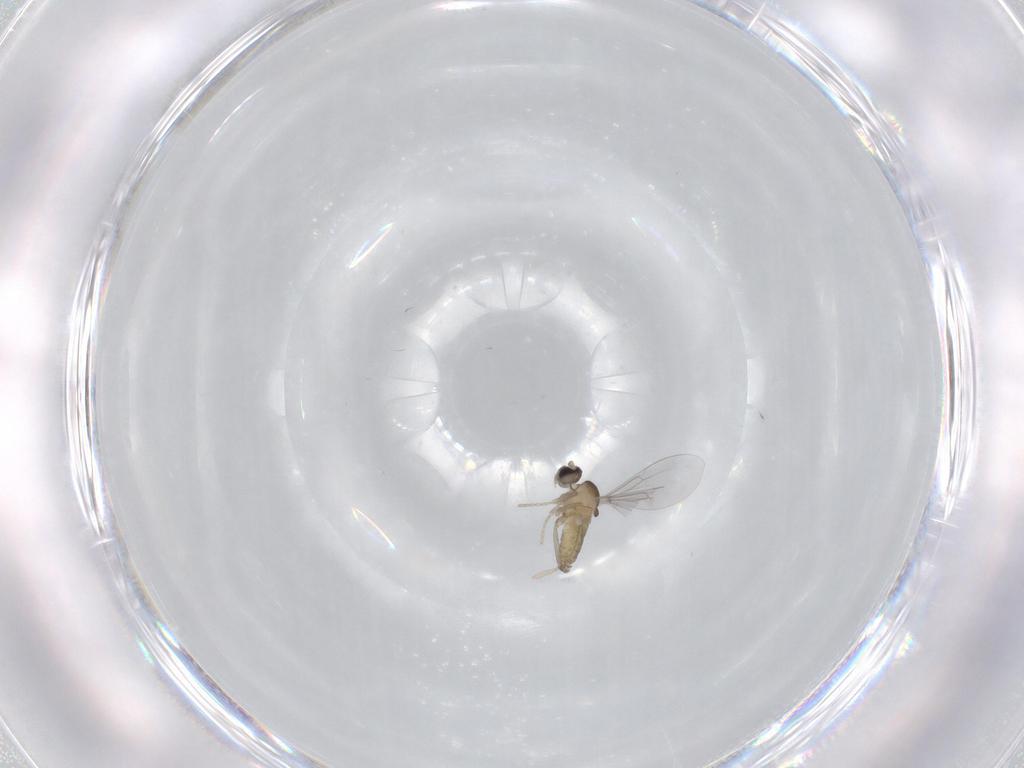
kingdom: Animalia
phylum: Arthropoda
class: Insecta
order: Diptera
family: Cecidomyiidae
